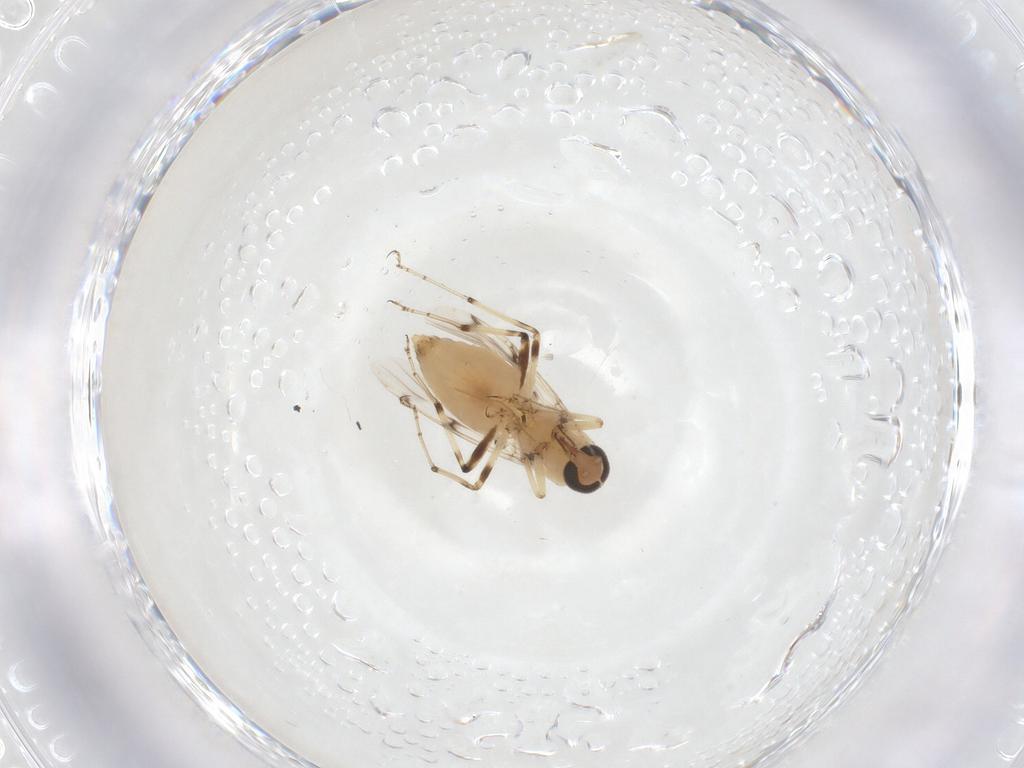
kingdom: Animalia
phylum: Arthropoda
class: Insecta
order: Diptera
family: Ceratopogonidae
